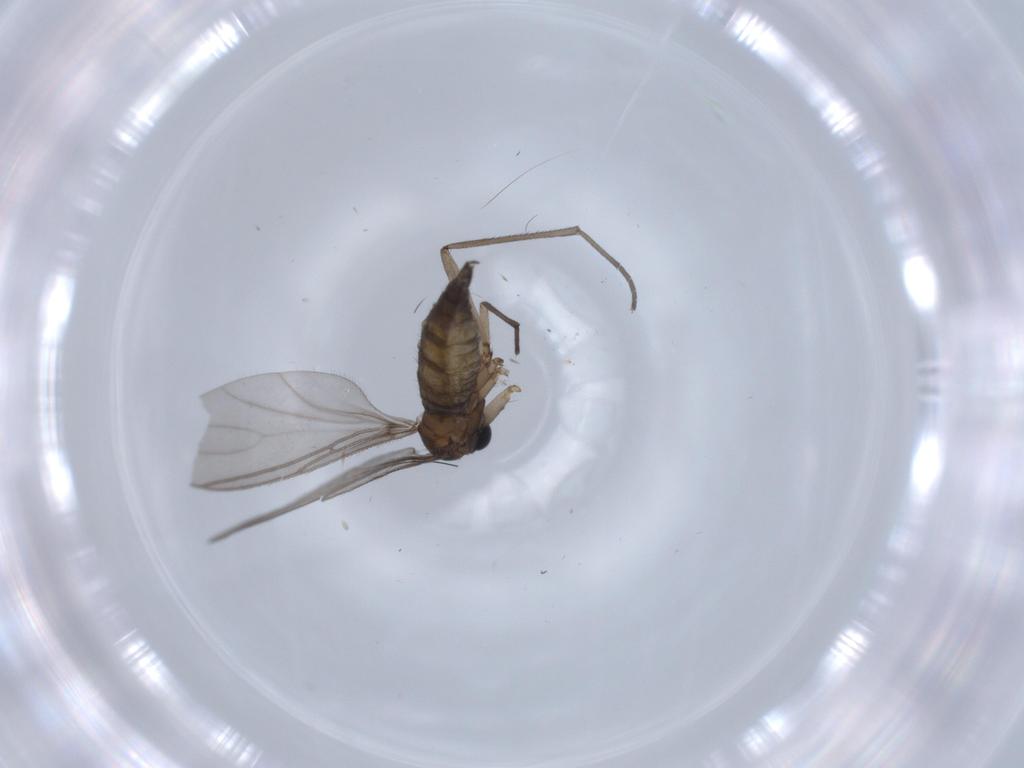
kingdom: Animalia
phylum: Arthropoda
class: Insecta
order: Diptera
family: Sciaridae
